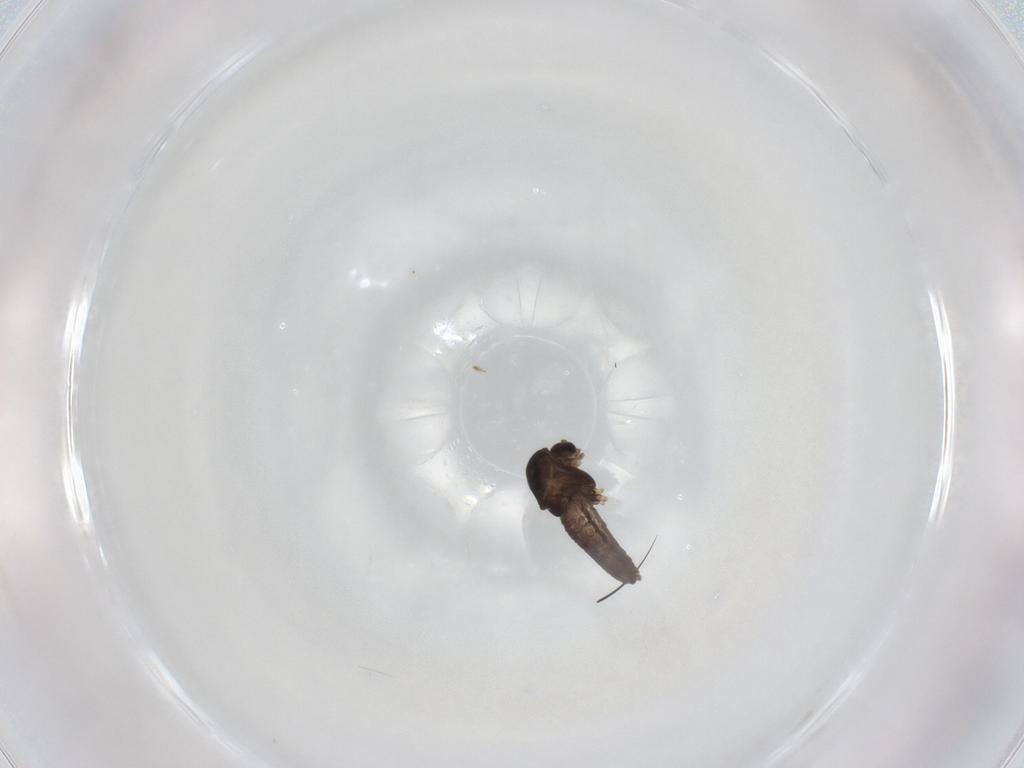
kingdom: Animalia
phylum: Arthropoda
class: Insecta
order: Diptera
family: Chironomidae
